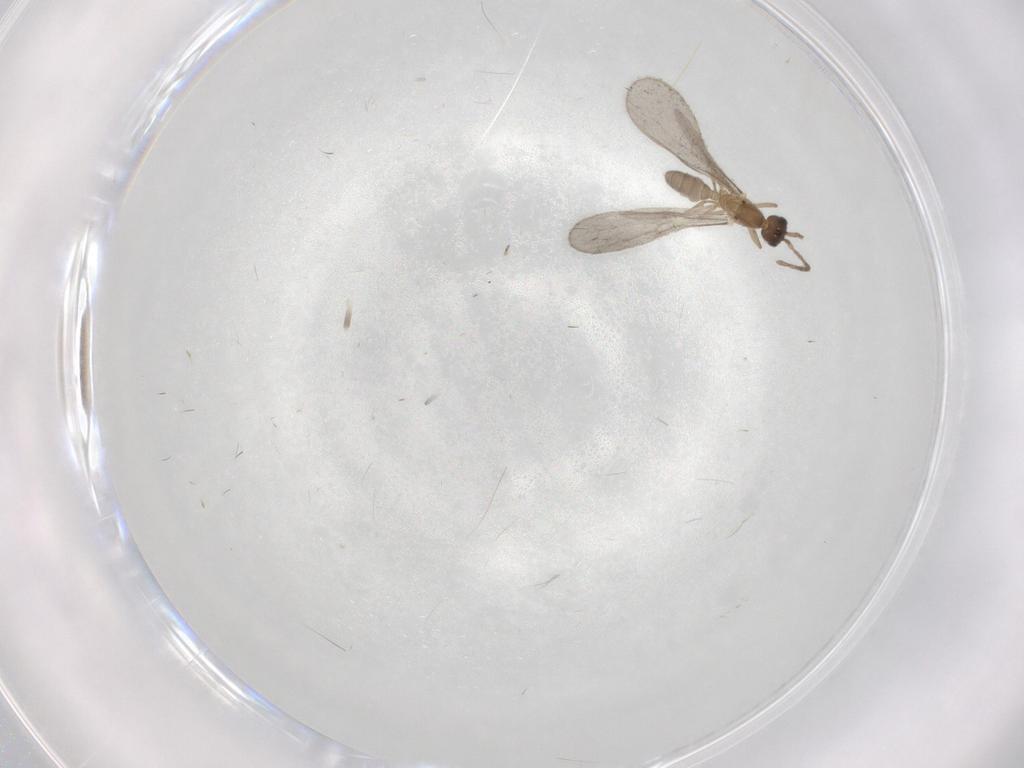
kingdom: Animalia
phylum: Arthropoda
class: Insecta
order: Hymenoptera
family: Formicidae
